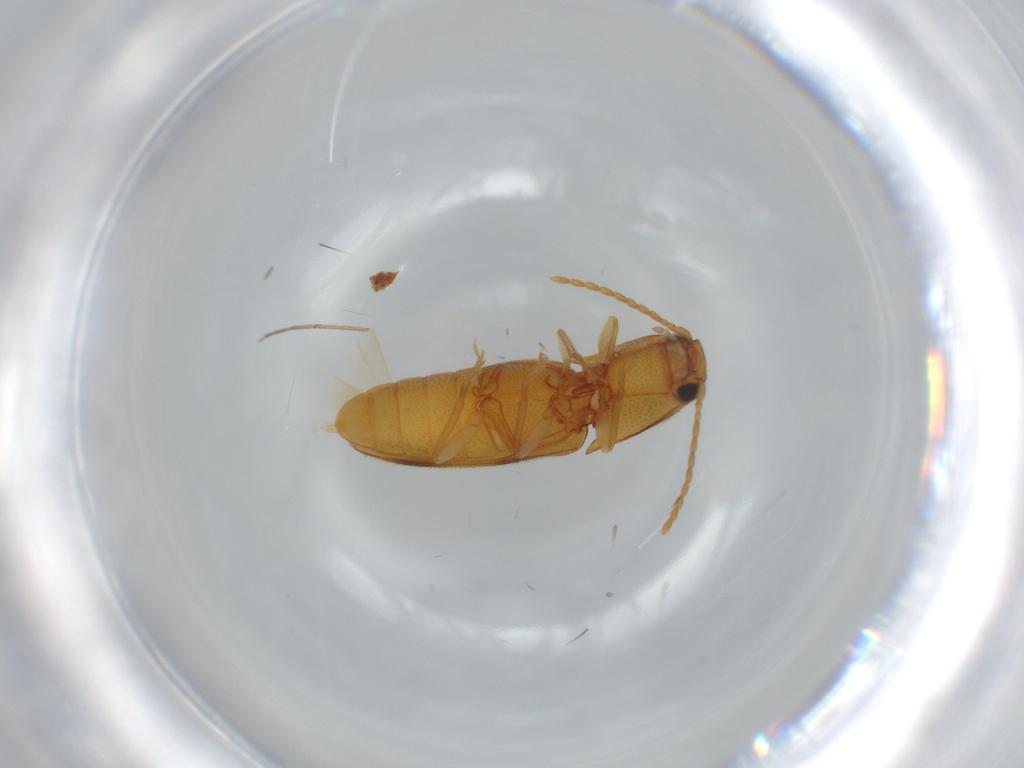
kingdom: Animalia
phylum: Arthropoda
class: Insecta
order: Coleoptera
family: Elateridae
